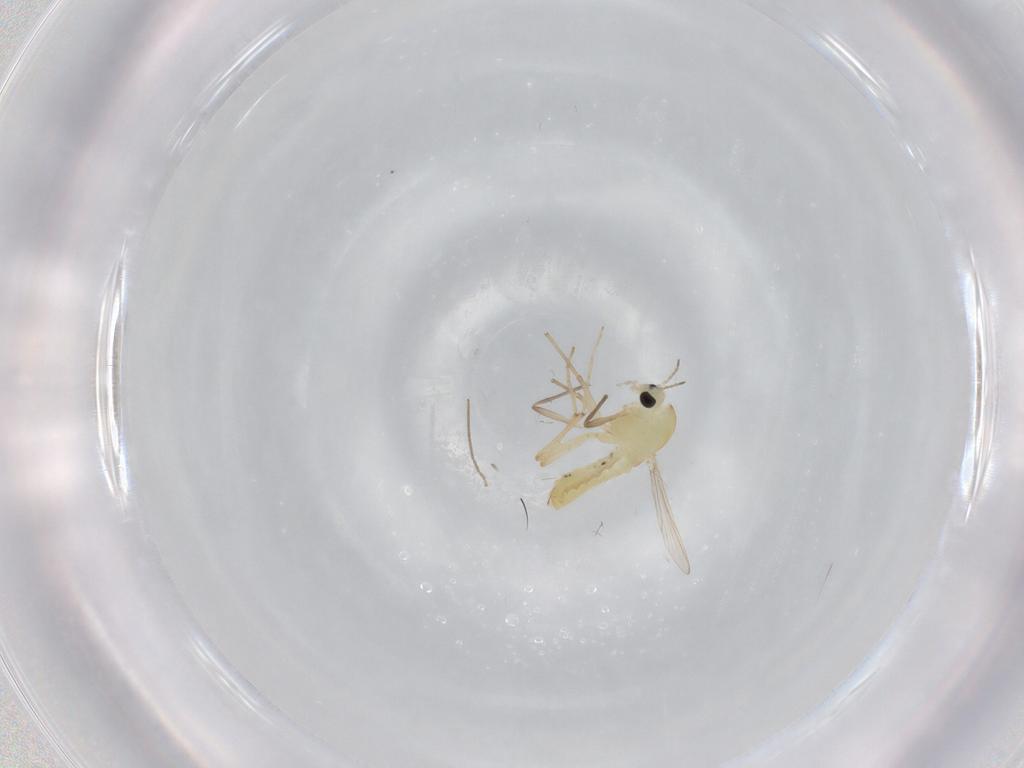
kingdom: Animalia
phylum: Arthropoda
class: Insecta
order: Diptera
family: Chironomidae
